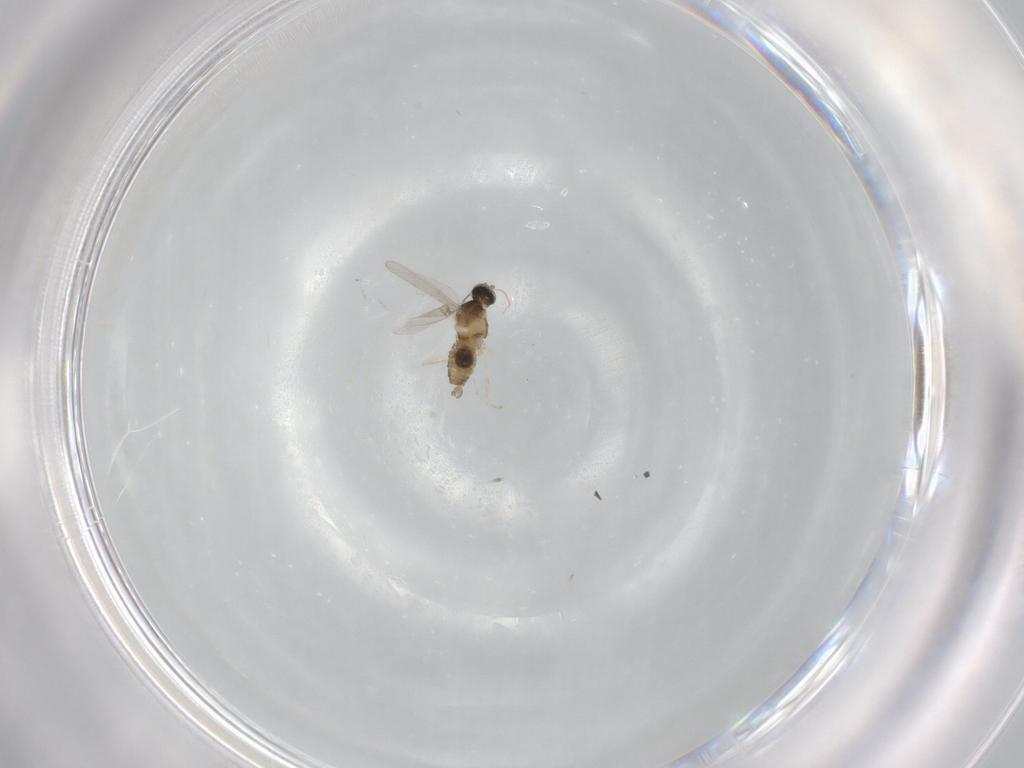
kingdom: Animalia
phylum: Arthropoda
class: Insecta
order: Diptera
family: Cecidomyiidae
